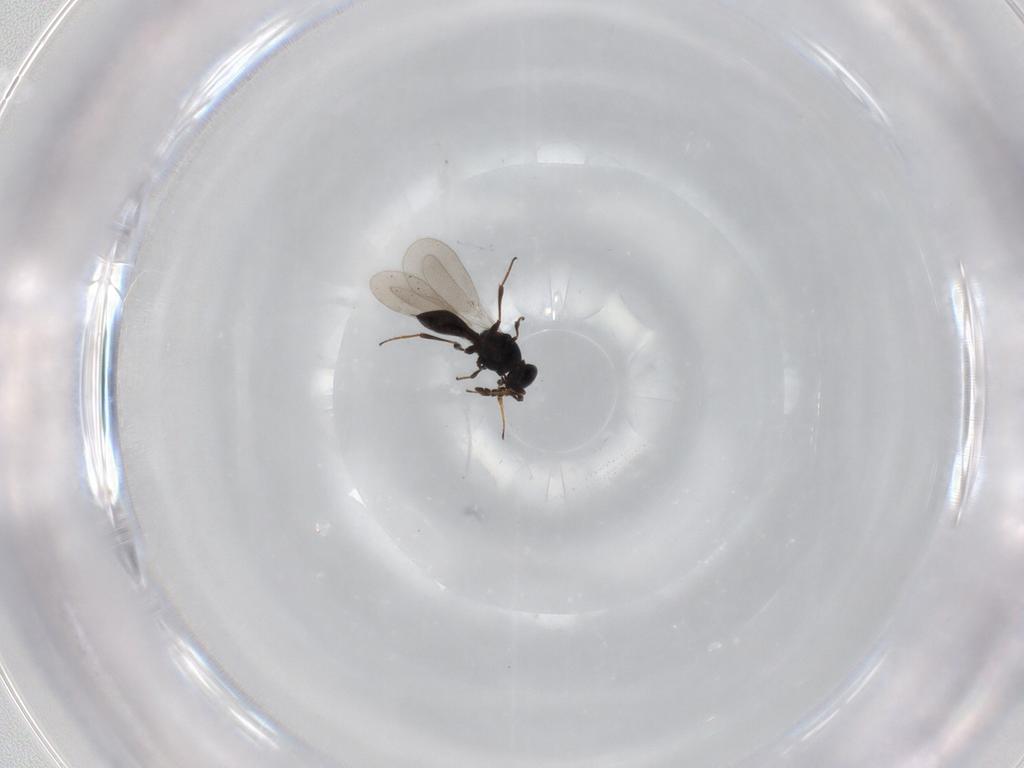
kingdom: Animalia
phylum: Arthropoda
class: Insecta
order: Hymenoptera
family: Platygastridae
